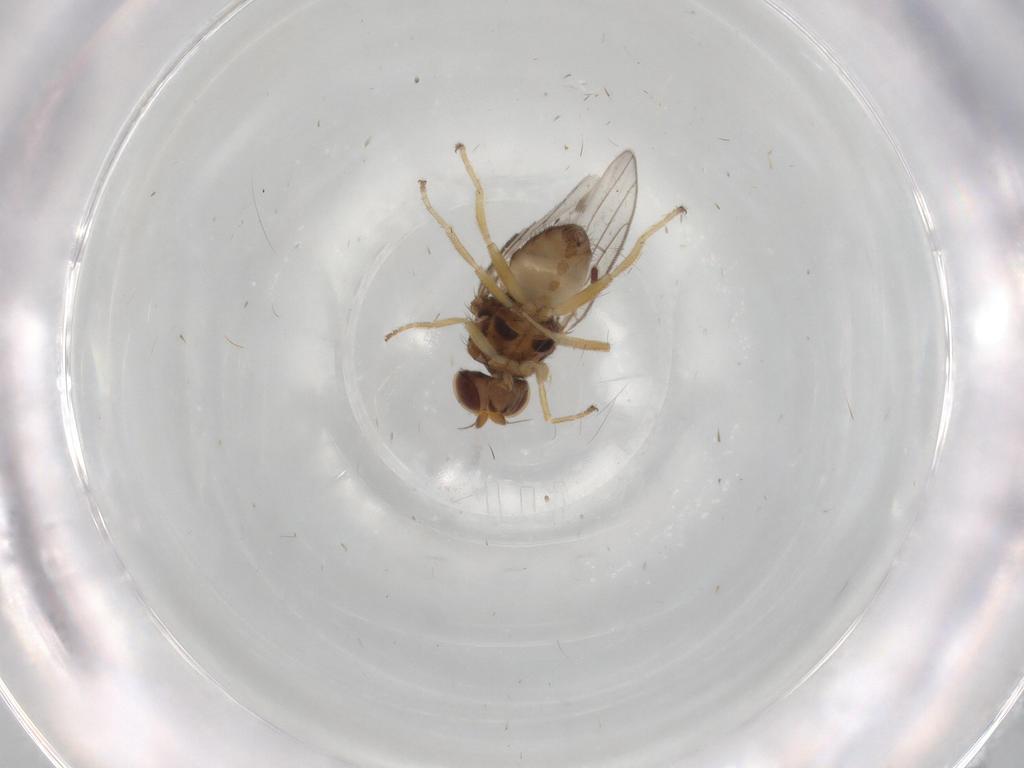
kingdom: Animalia
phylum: Arthropoda
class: Insecta
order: Diptera
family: Chloropidae
